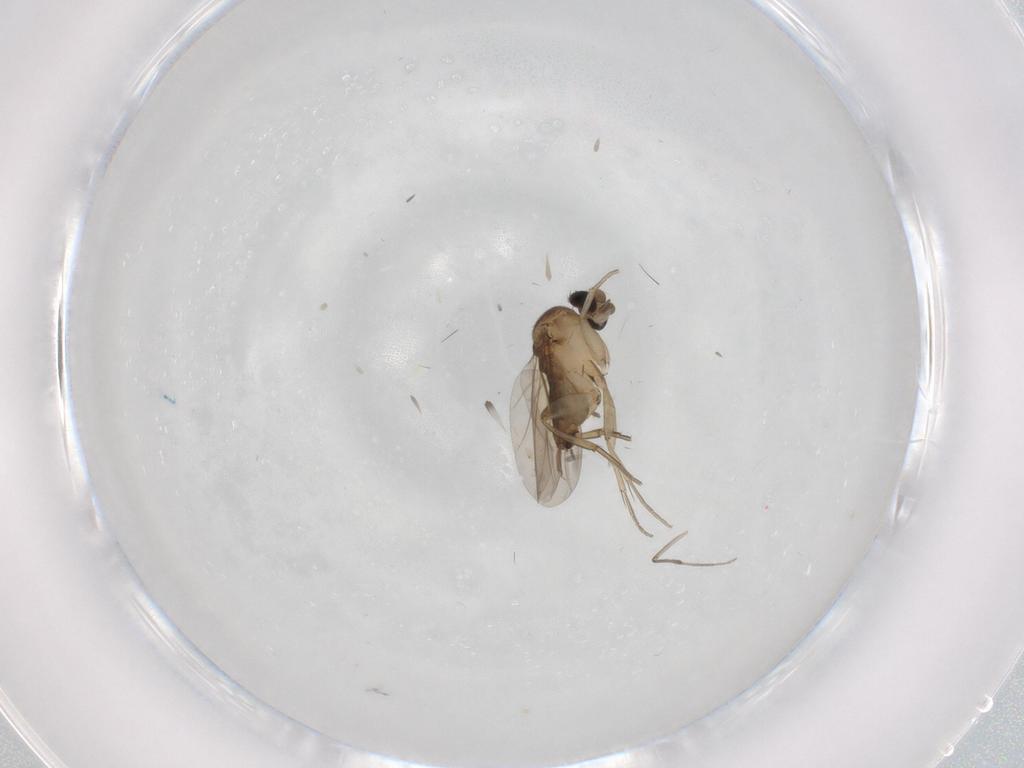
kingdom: Animalia
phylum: Arthropoda
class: Insecta
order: Diptera
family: Chironomidae
